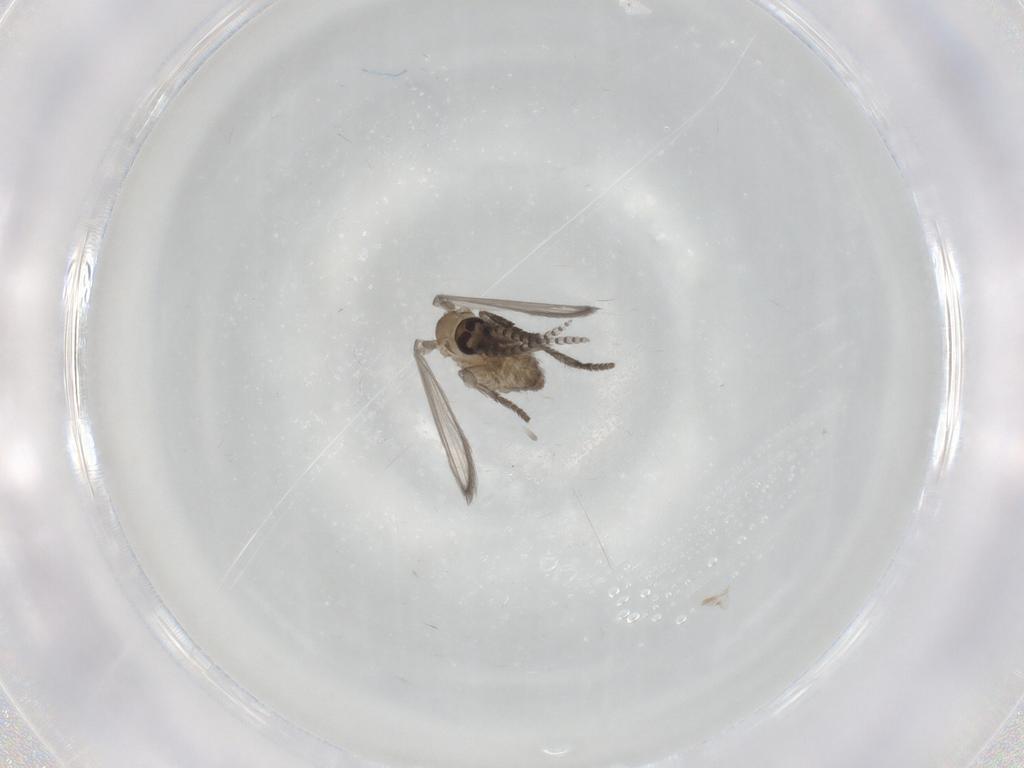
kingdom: Animalia
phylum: Arthropoda
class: Insecta
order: Diptera
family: Psychodidae
